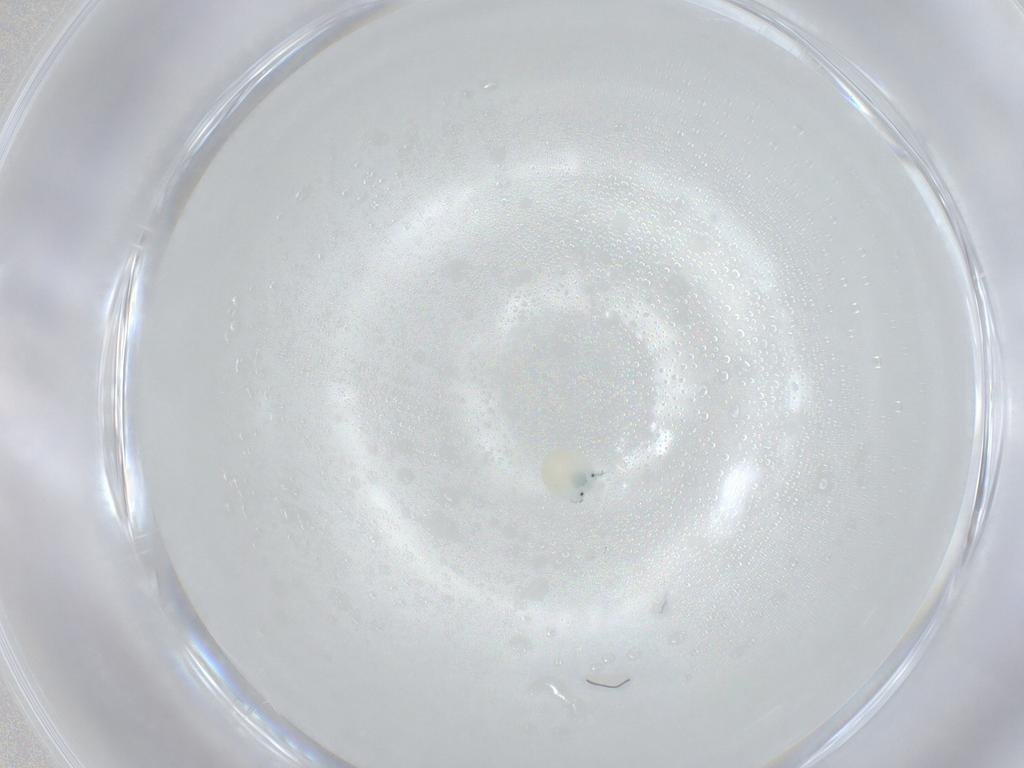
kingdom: Animalia
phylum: Arthropoda
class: Arachnida
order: Trombidiformes
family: Arrenuridae
